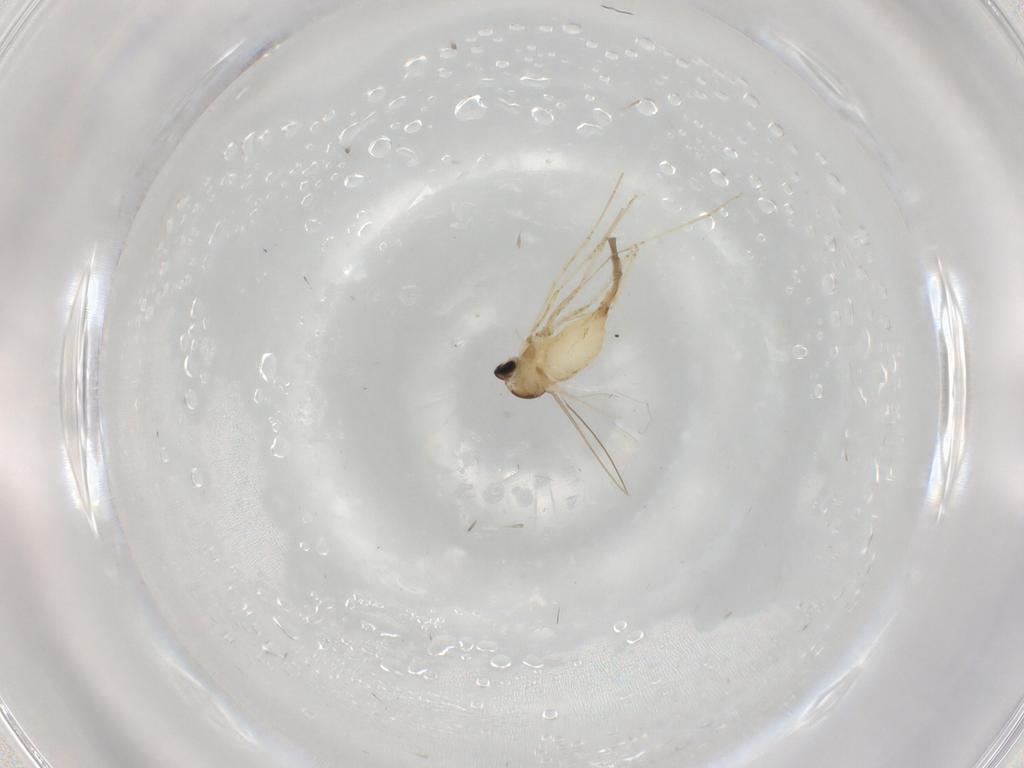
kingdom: Animalia
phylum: Arthropoda
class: Insecta
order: Diptera
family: Cecidomyiidae
